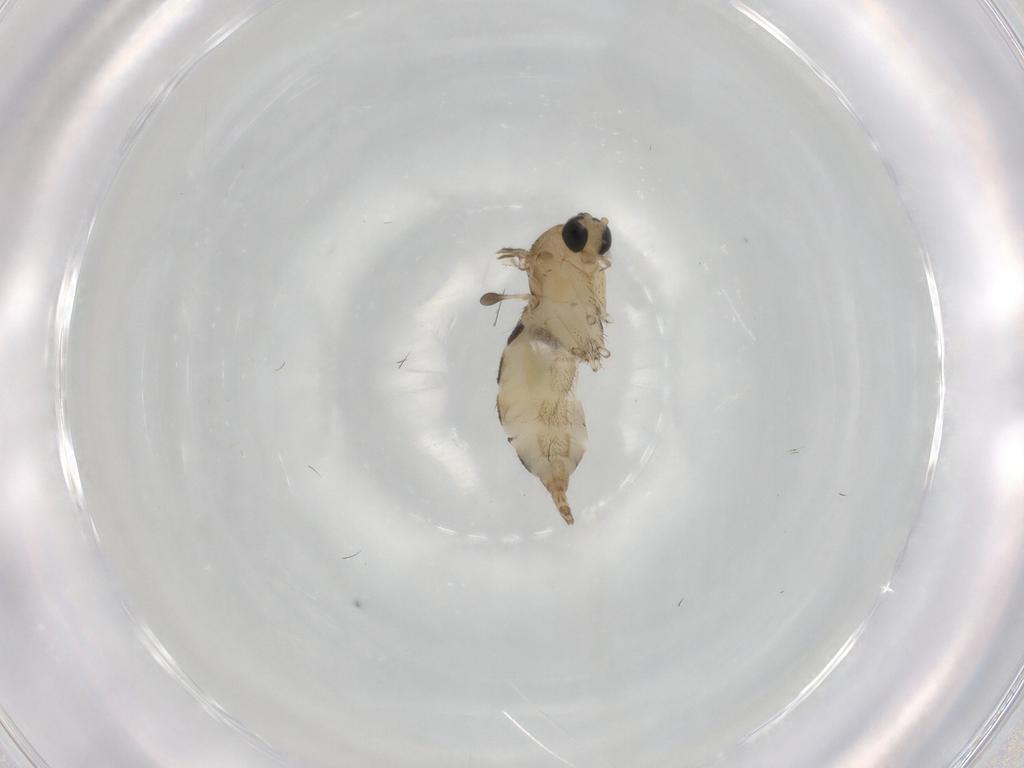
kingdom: Animalia
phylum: Arthropoda
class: Insecta
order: Diptera
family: Sciaridae
